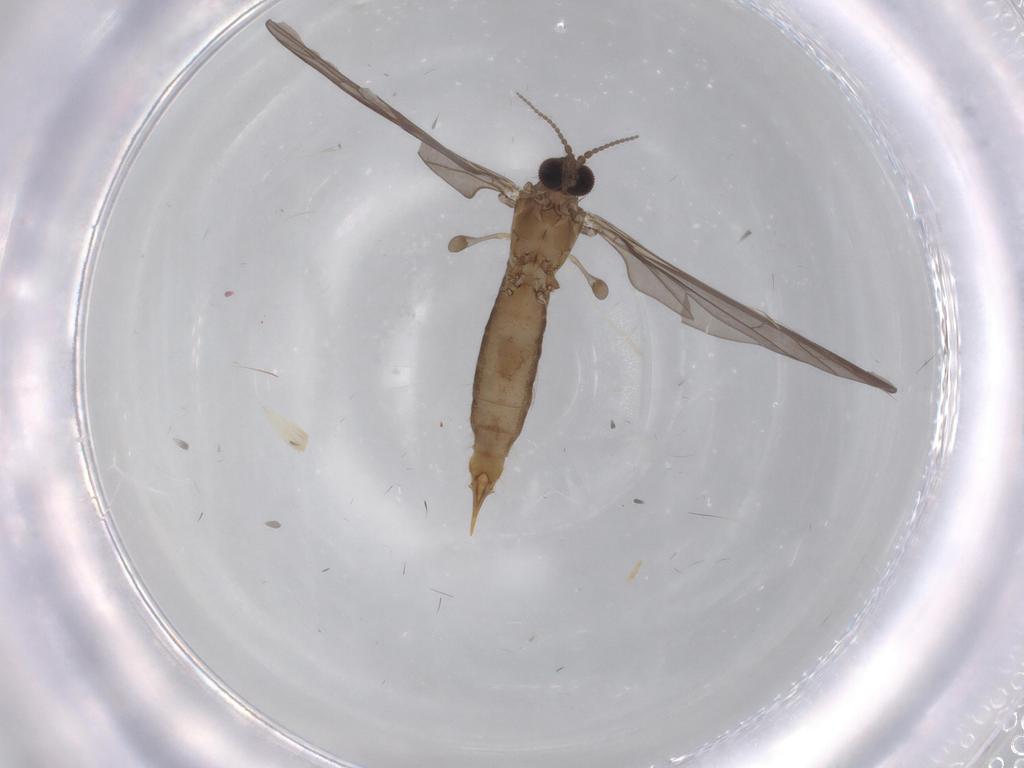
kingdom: Animalia
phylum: Arthropoda
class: Insecta
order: Diptera
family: Limoniidae
